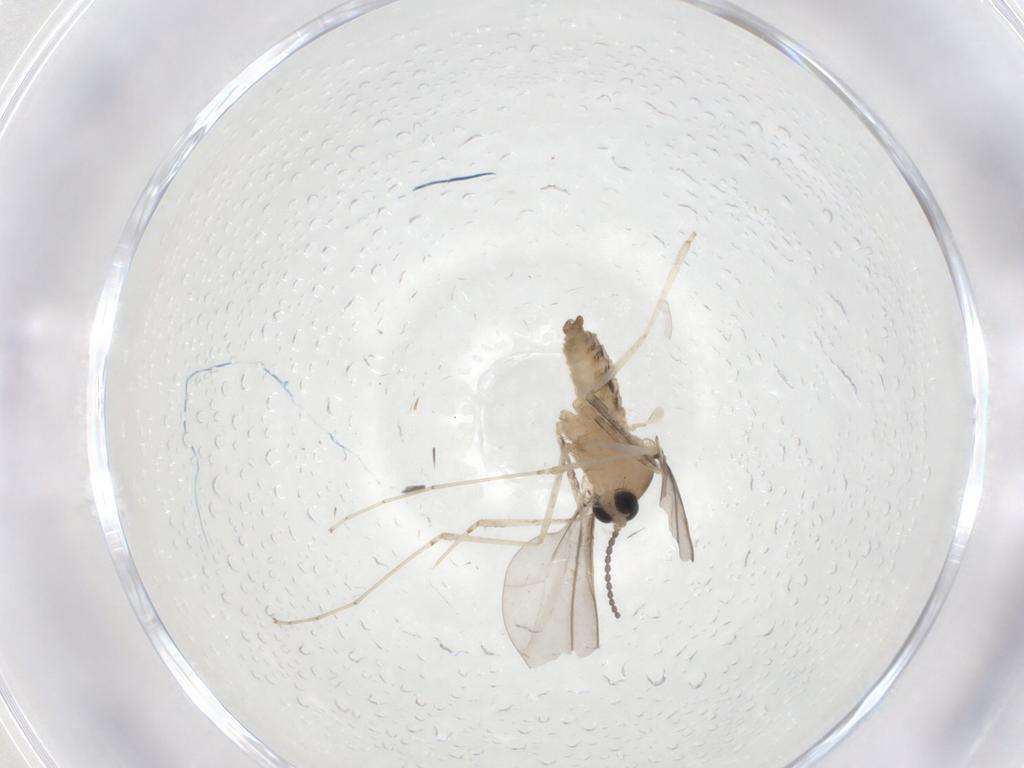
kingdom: Animalia
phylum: Arthropoda
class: Insecta
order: Diptera
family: Cecidomyiidae
